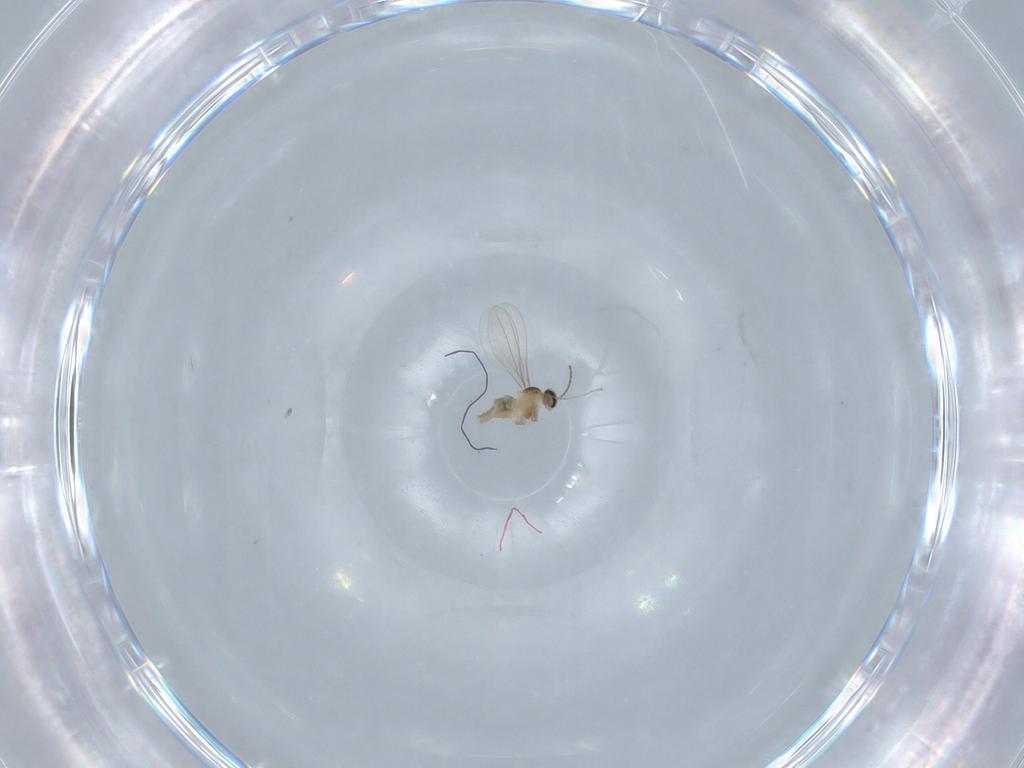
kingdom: Animalia
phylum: Arthropoda
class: Insecta
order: Diptera
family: Cecidomyiidae
